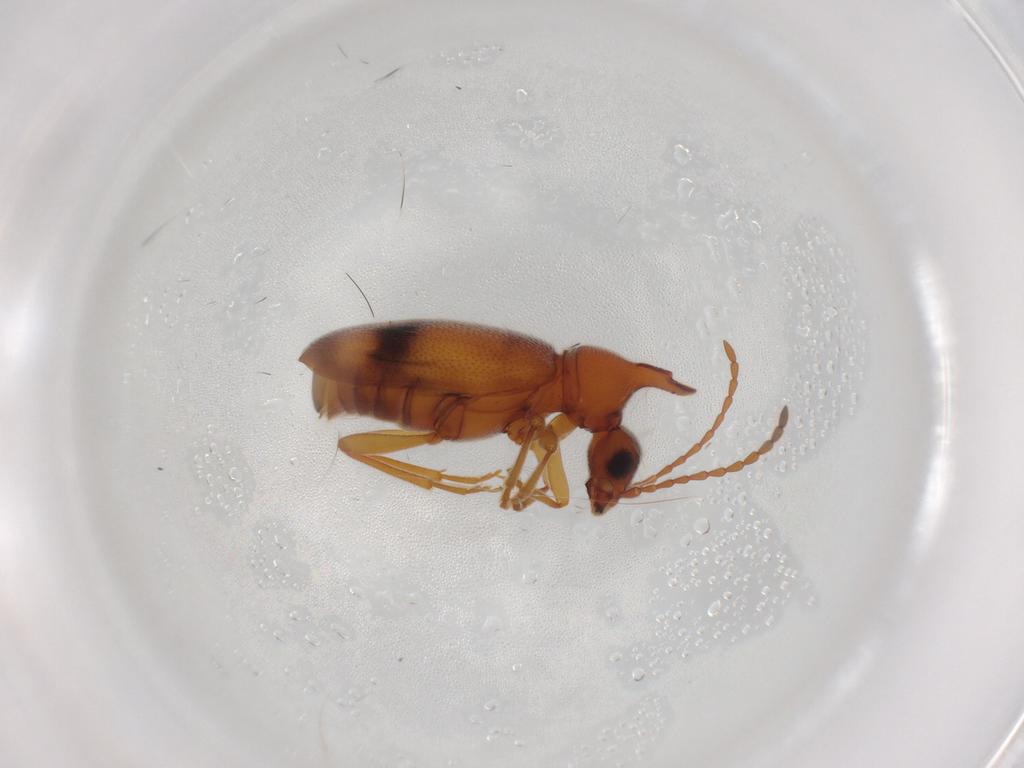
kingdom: Animalia
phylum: Arthropoda
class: Insecta
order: Coleoptera
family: Anthicidae
